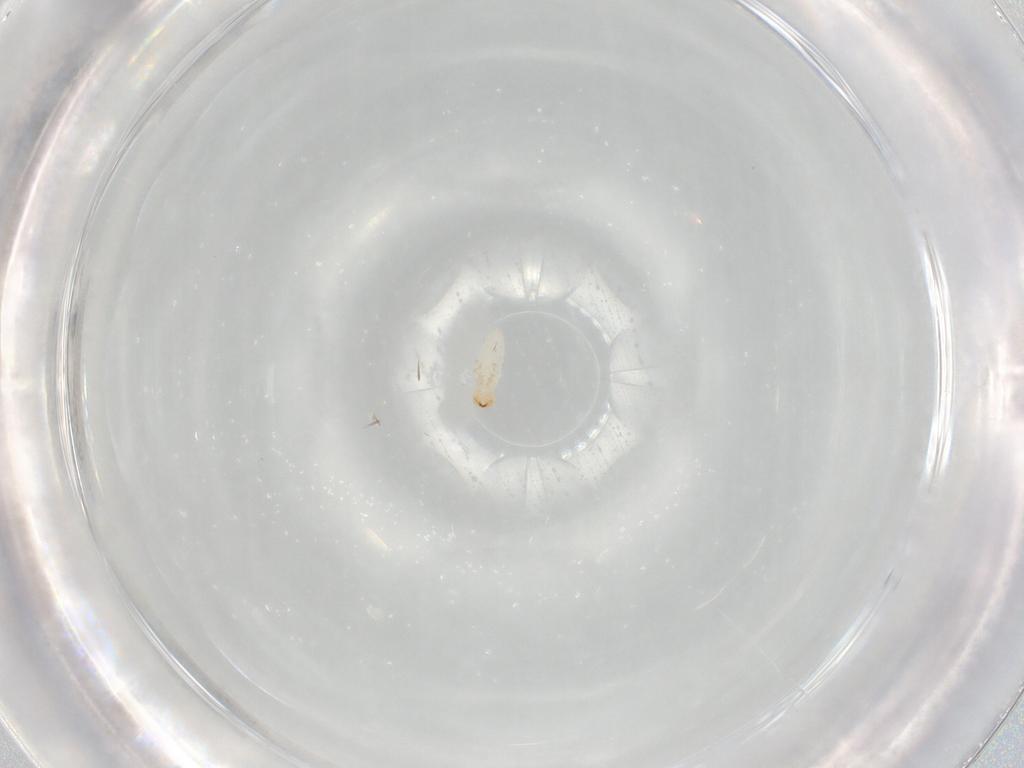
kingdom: Animalia
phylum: Arthropoda
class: Insecta
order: Coleoptera
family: Chrysomelidae
